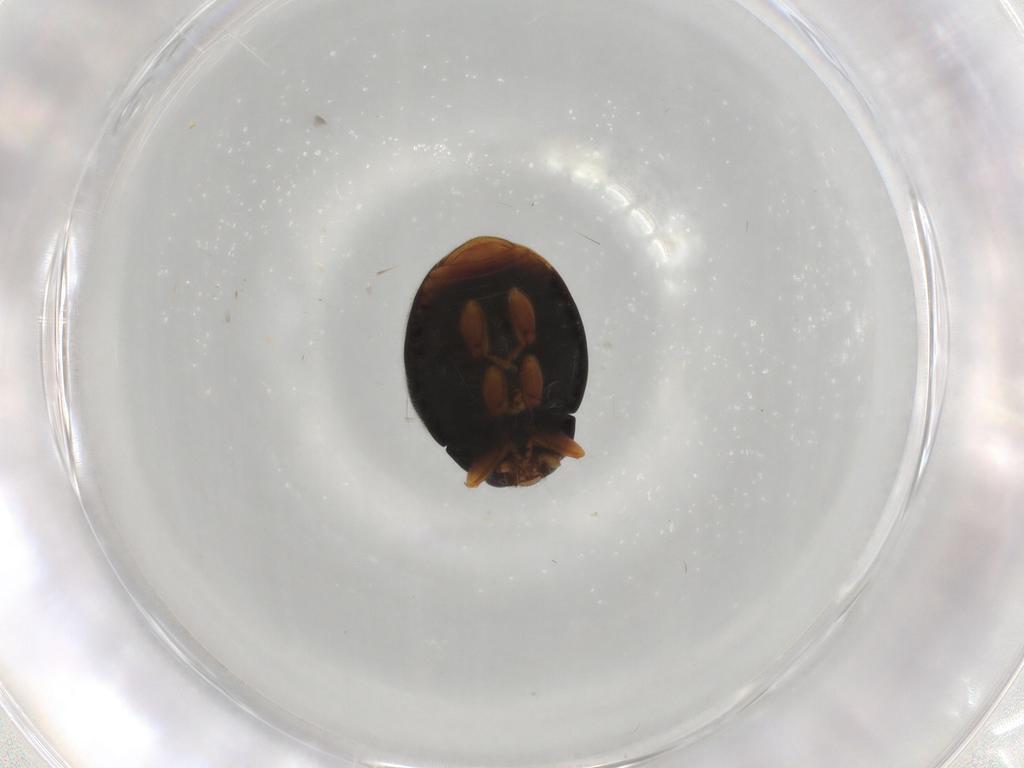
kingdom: Animalia
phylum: Arthropoda
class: Insecta
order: Coleoptera
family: Coccinellidae
